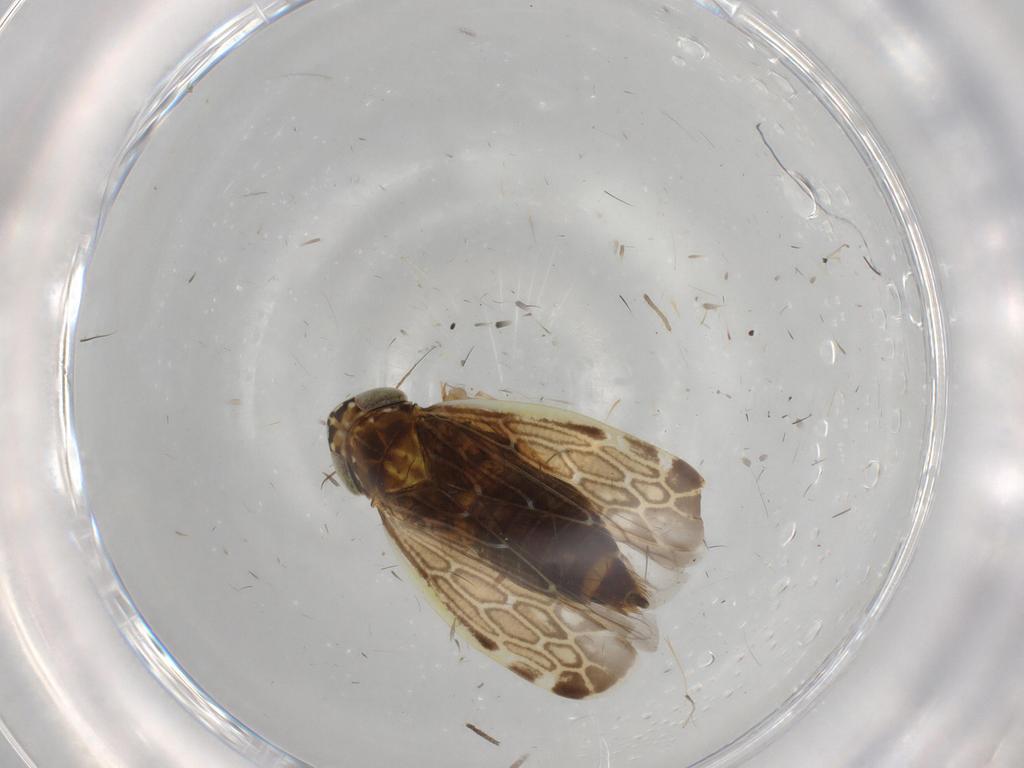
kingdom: Animalia
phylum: Arthropoda
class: Insecta
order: Hemiptera
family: Cicadellidae
